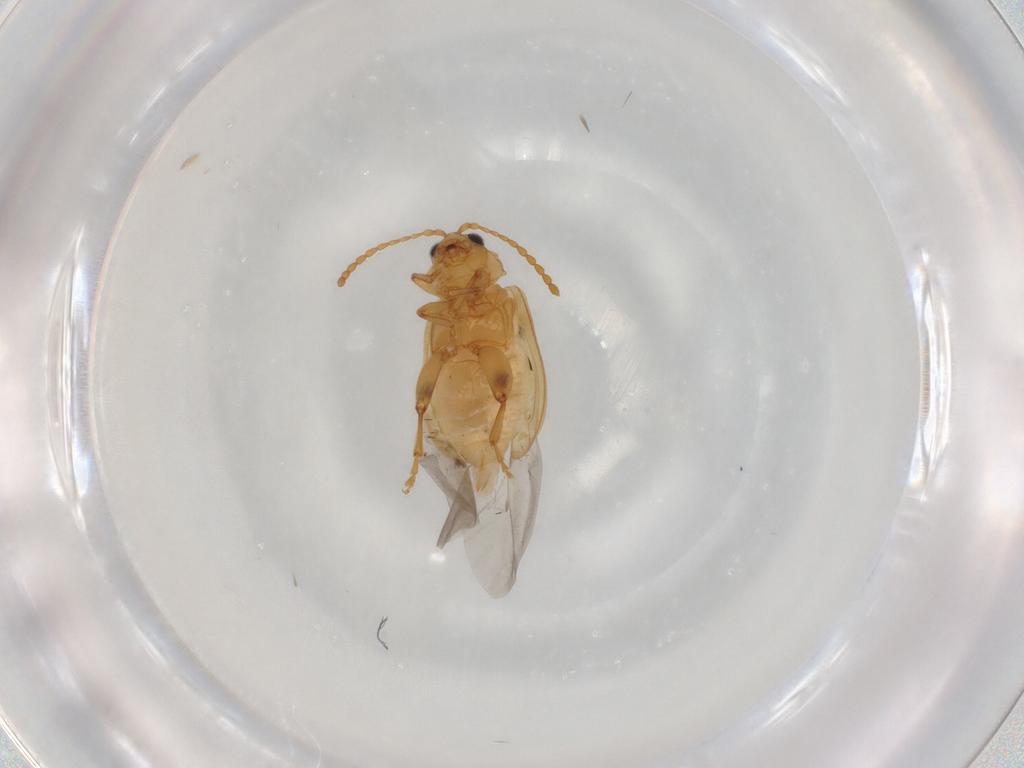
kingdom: Animalia
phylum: Arthropoda
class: Insecta
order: Coleoptera
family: Chrysomelidae
